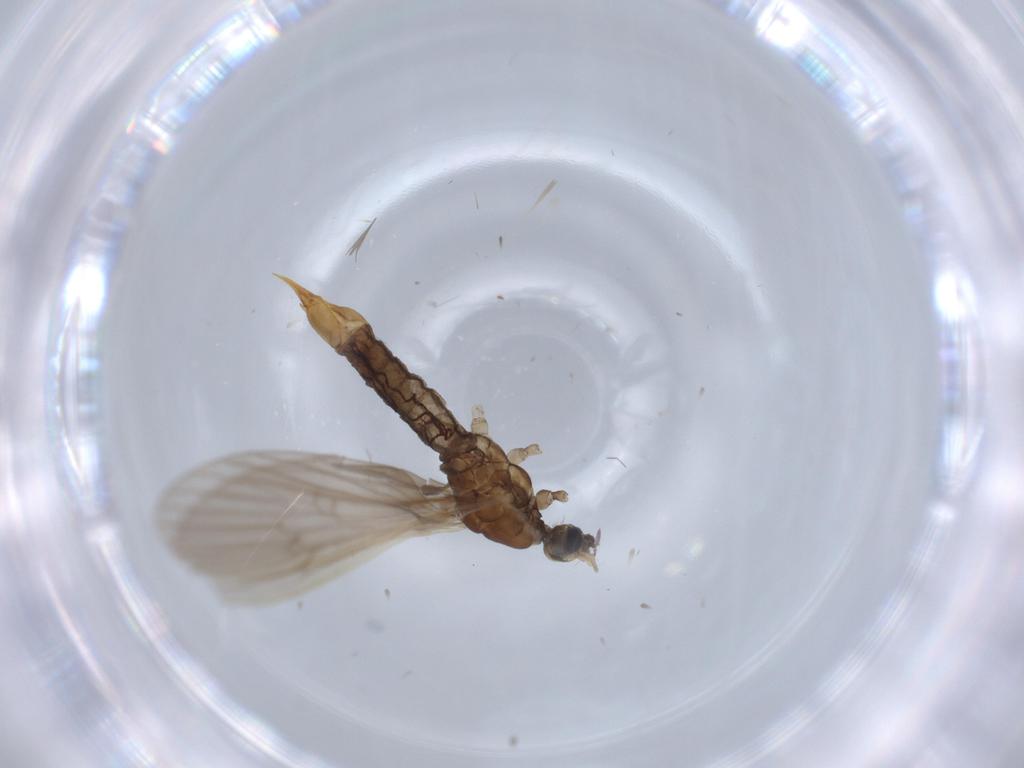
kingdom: Animalia
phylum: Arthropoda
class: Insecta
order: Diptera
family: Limoniidae
